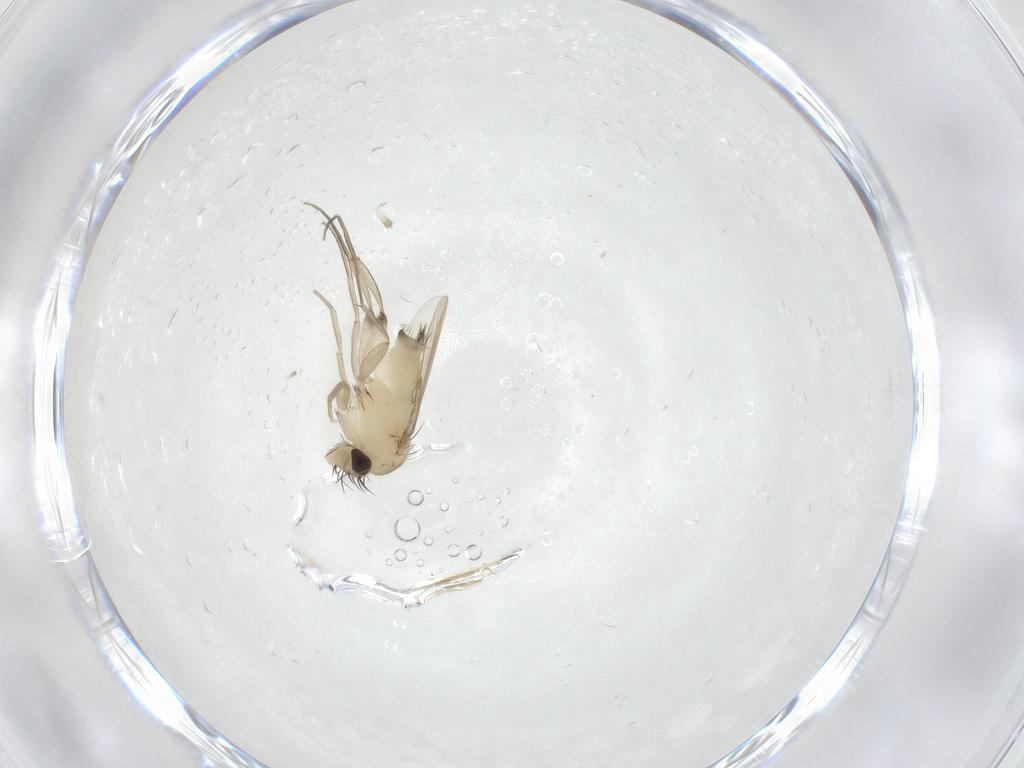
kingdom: Animalia
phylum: Arthropoda
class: Insecta
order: Diptera
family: Phoridae
